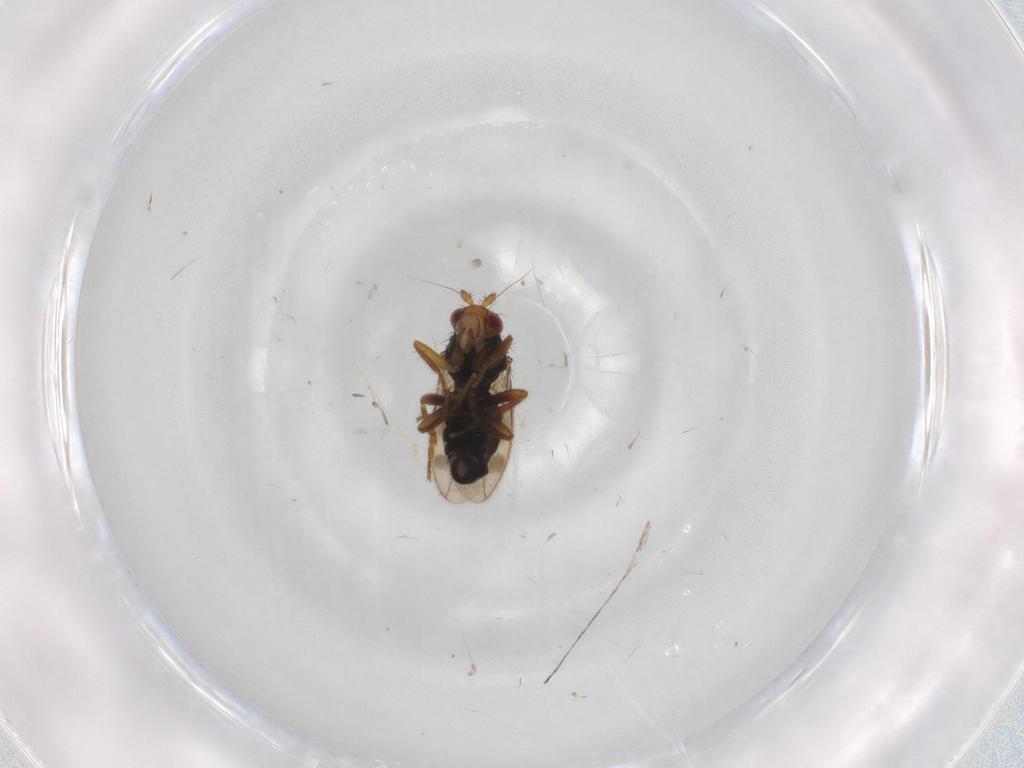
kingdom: Animalia
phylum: Arthropoda
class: Insecta
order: Diptera
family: Sphaeroceridae
